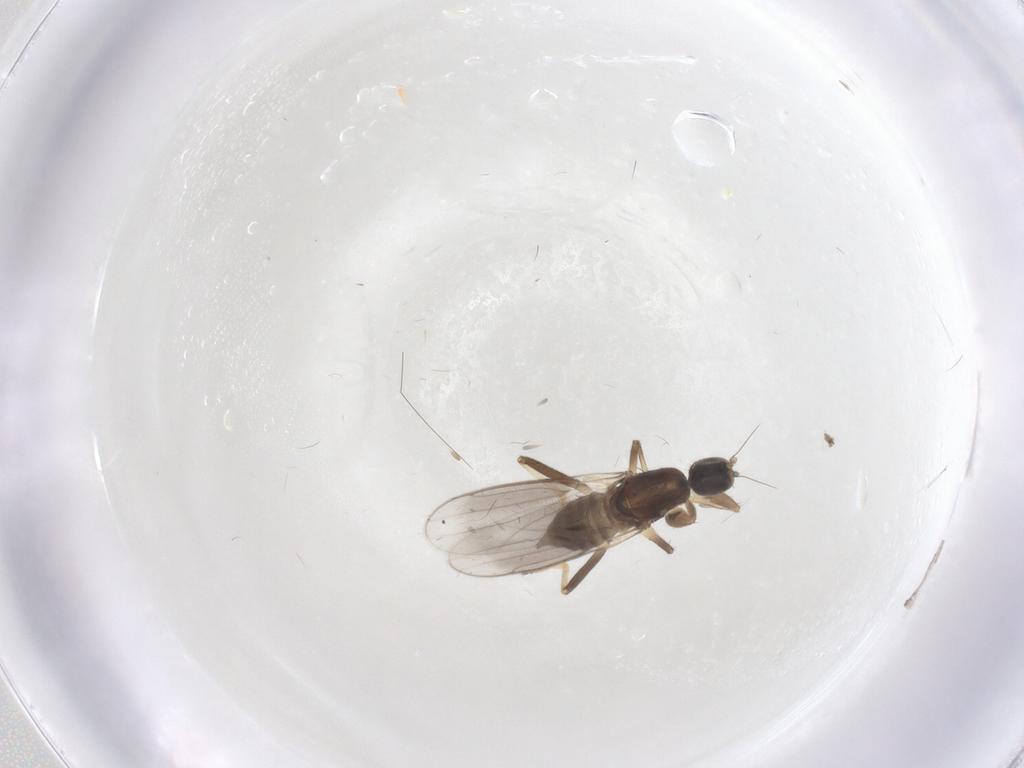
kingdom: Animalia
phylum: Arthropoda
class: Insecta
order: Diptera
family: Hybotidae
